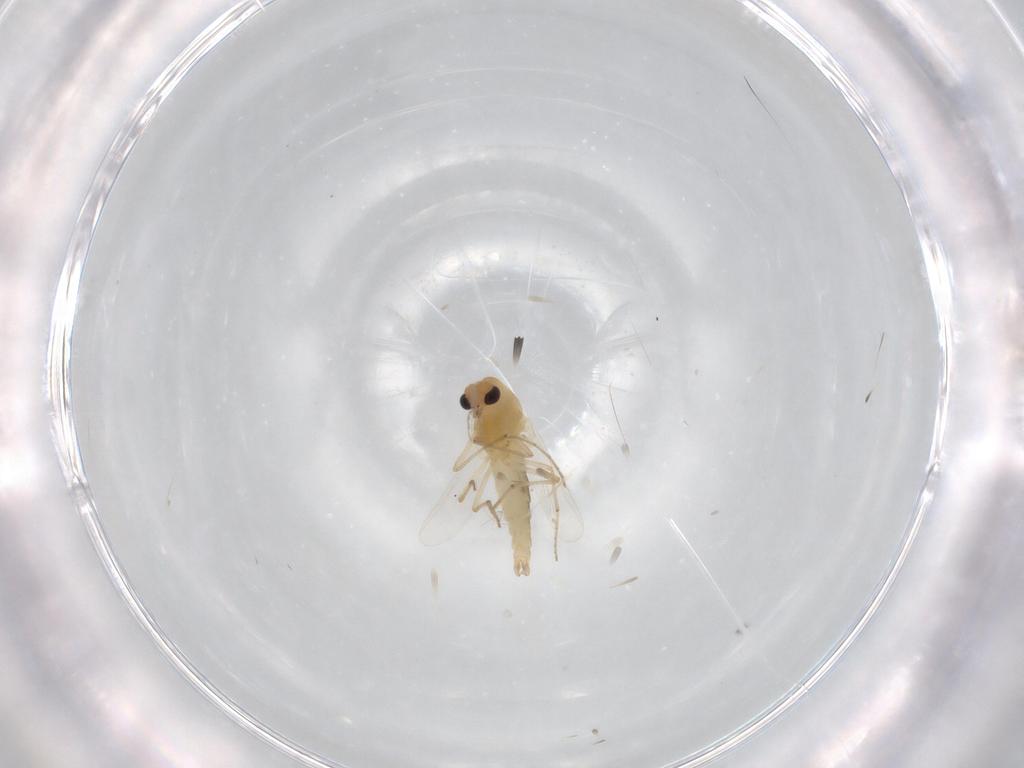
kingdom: Animalia
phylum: Arthropoda
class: Insecta
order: Diptera
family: Chironomidae
